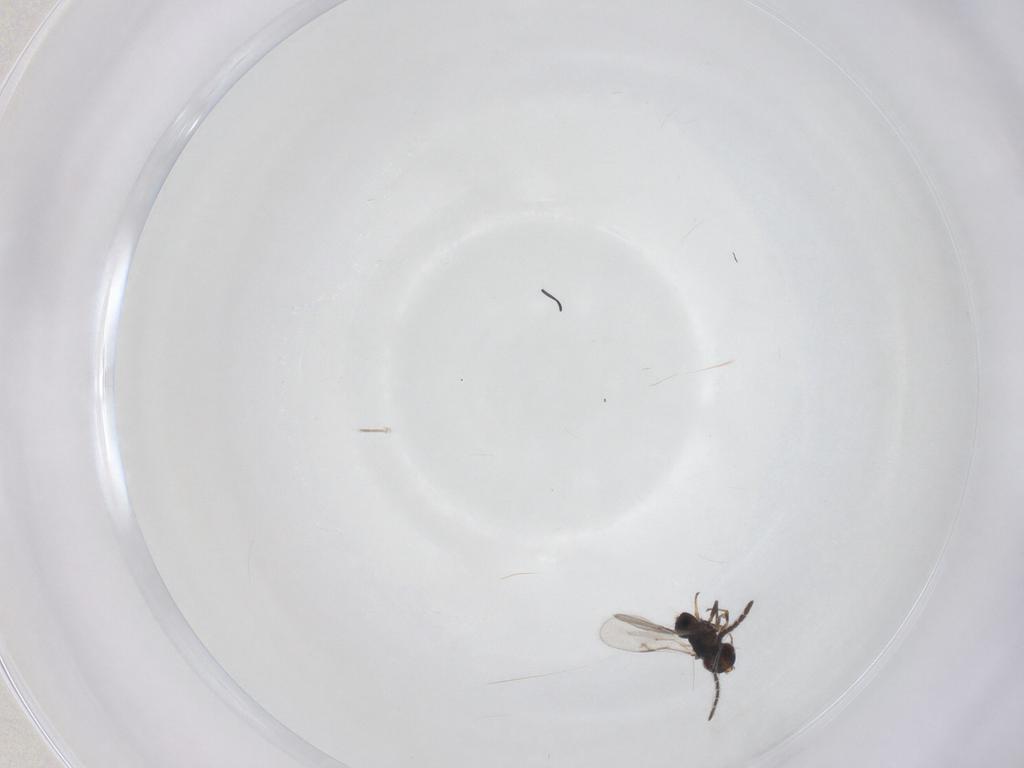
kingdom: Animalia
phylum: Arthropoda
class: Insecta
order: Hymenoptera
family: Encyrtidae
